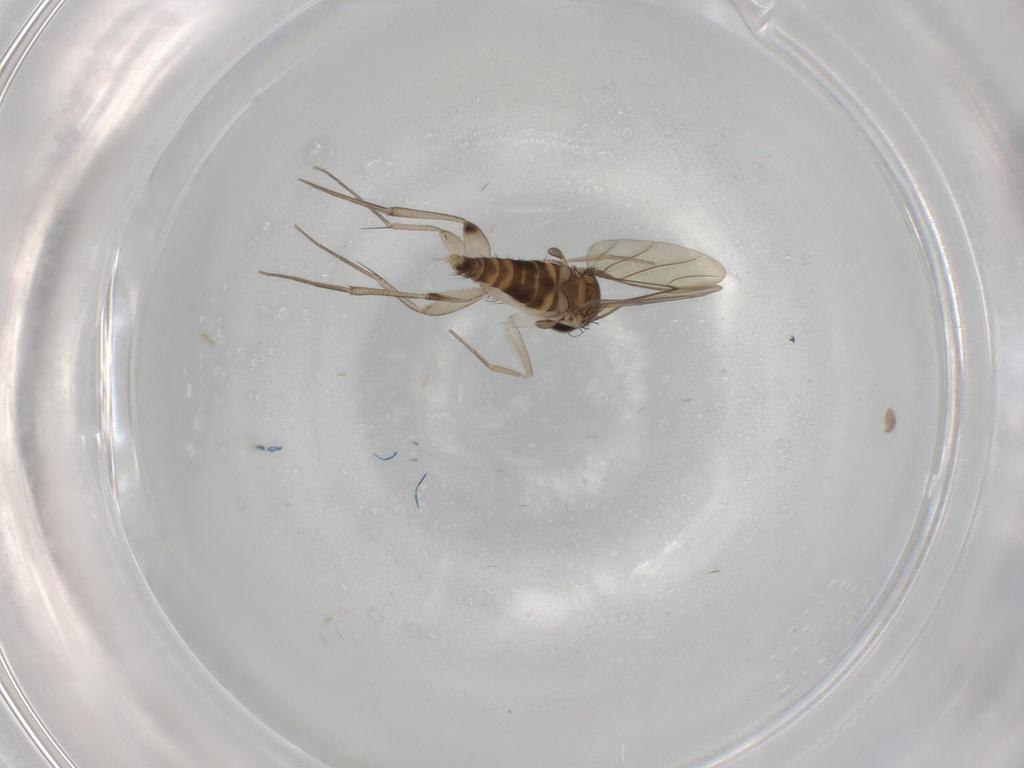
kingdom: Animalia
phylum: Arthropoda
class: Insecta
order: Diptera
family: Phoridae
